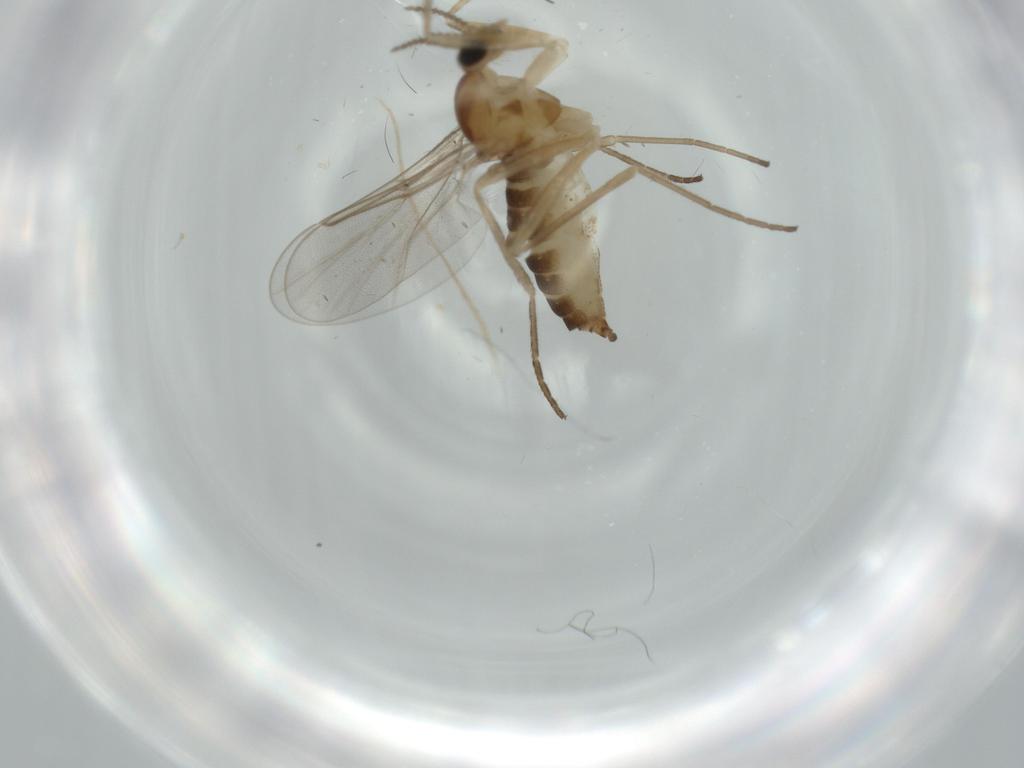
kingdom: Animalia
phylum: Arthropoda
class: Insecta
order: Diptera
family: Cecidomyiidae
